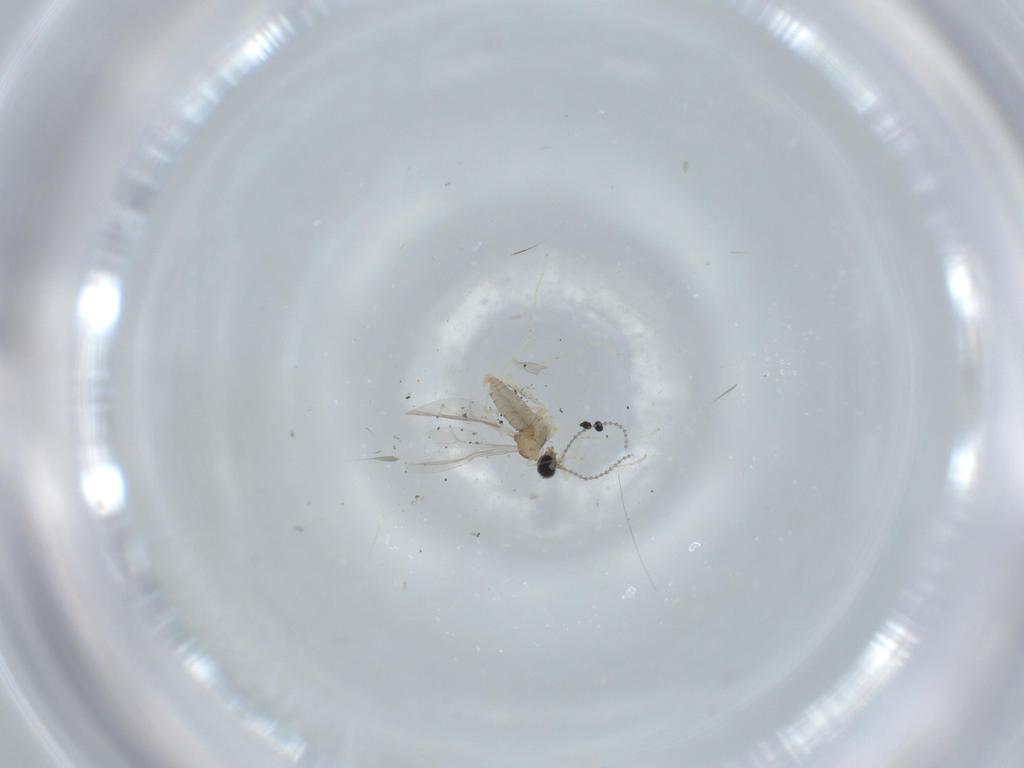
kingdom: Animalia
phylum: Arthropoda
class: Insecta
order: Diptera
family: Cecidomyiidae
